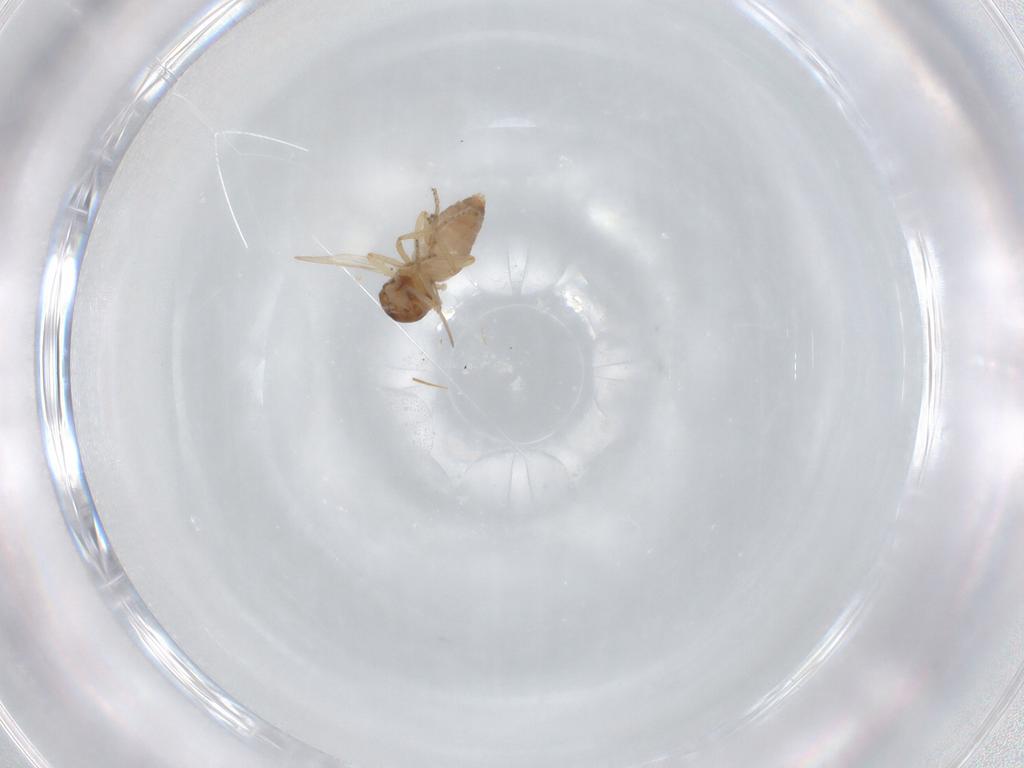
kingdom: Animalia
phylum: Arthropoda
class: Insecta
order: Diptera
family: Ceratopogonidae
